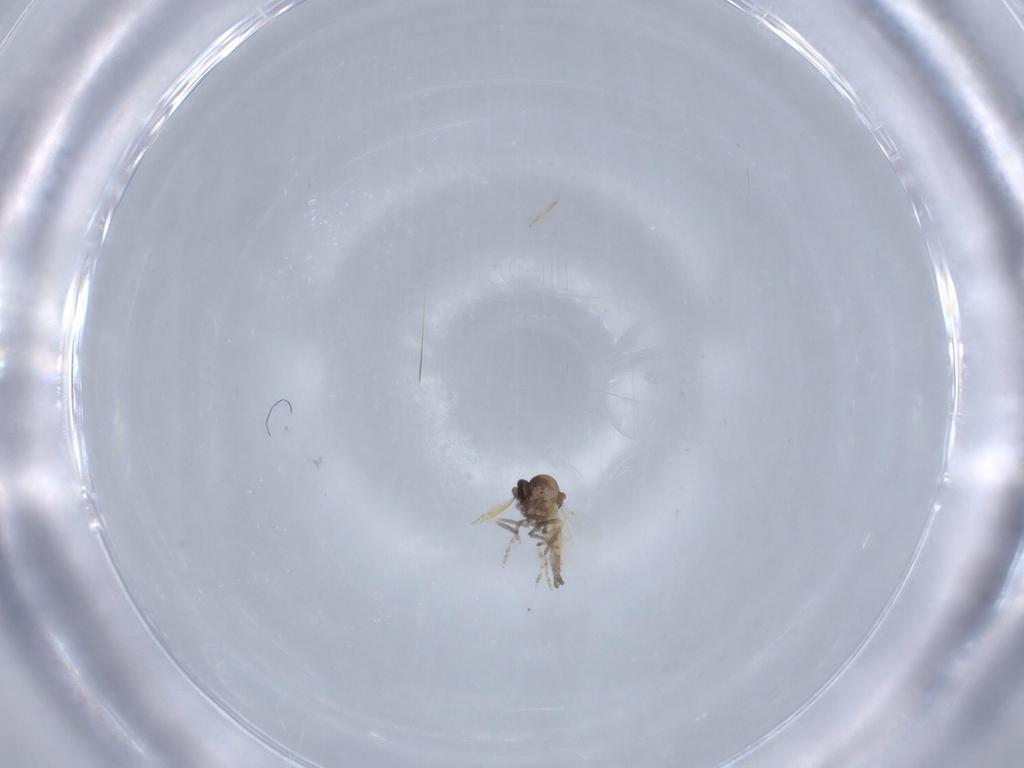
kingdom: Animalia
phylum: Arthropoda
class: Insecta
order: Diptera
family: Ceratopogonidae
